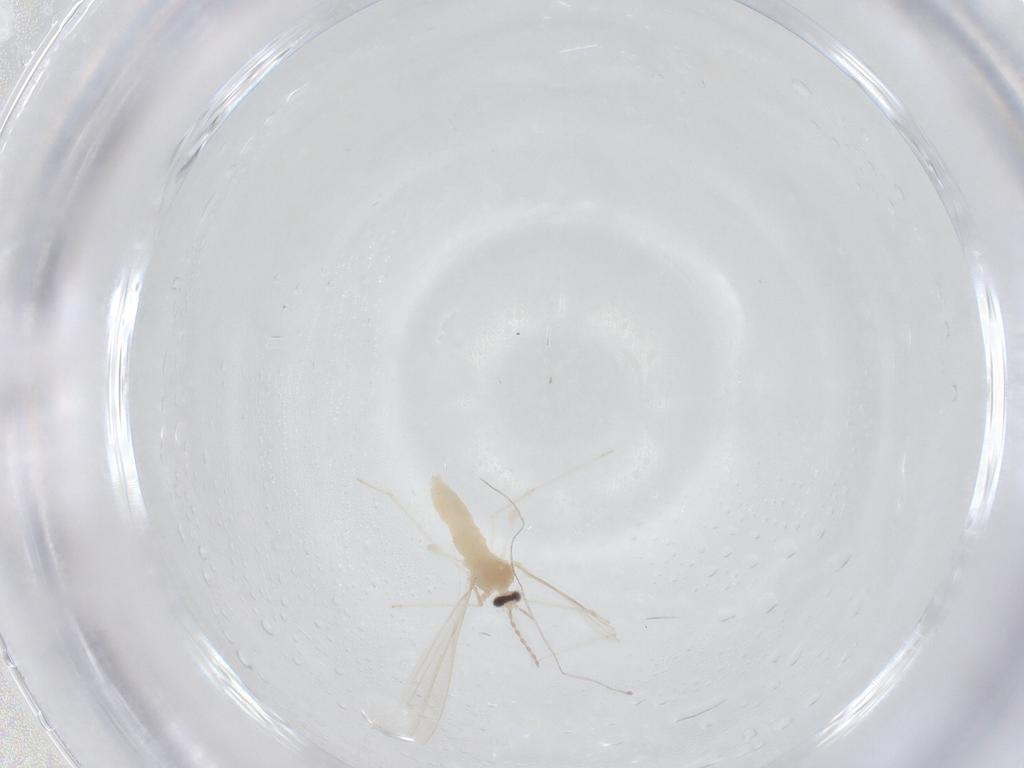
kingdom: Animalia
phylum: Arthropoda
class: Insecta
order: Diptera
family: Cecidomyiidae
